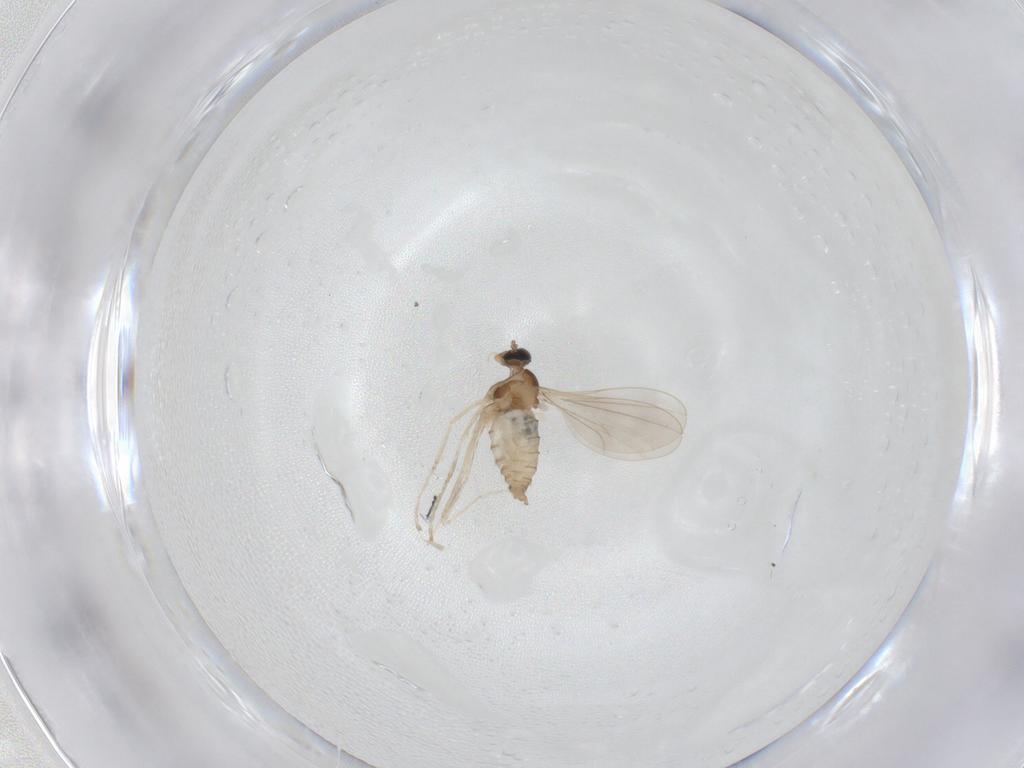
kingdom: Animalia
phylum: Arthropoda
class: Insecta
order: Diptera
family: Cecidomyiidae
